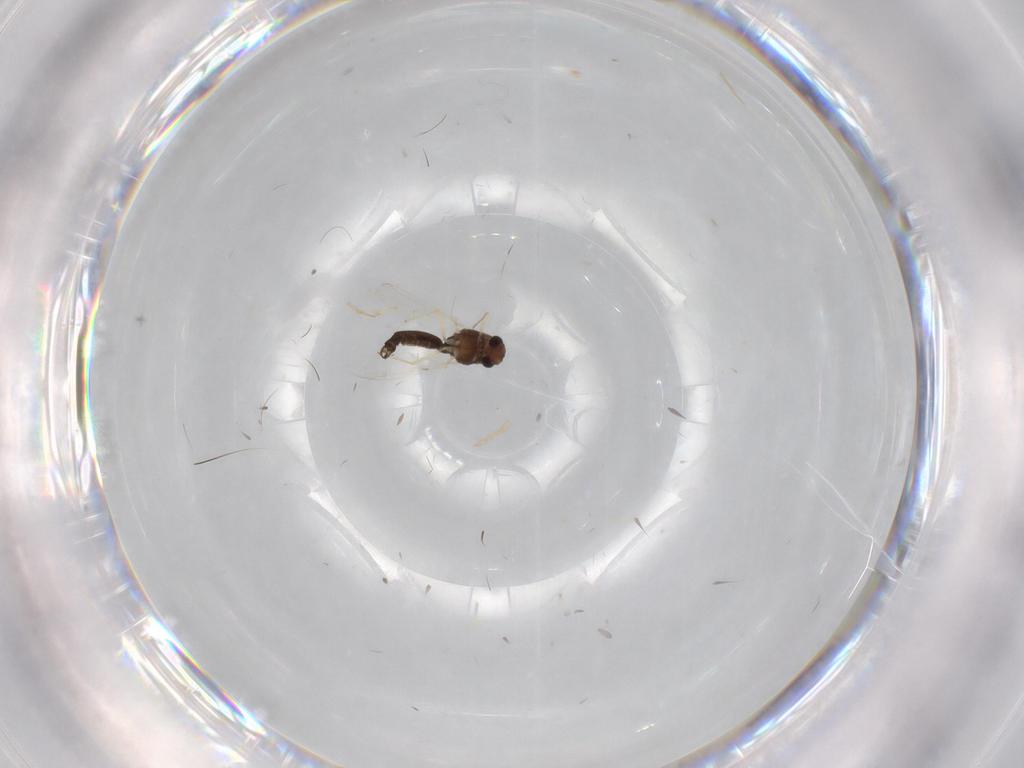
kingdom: Animalia
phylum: Arthropoda
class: Insecta
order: Diptera
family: Chironomidae
